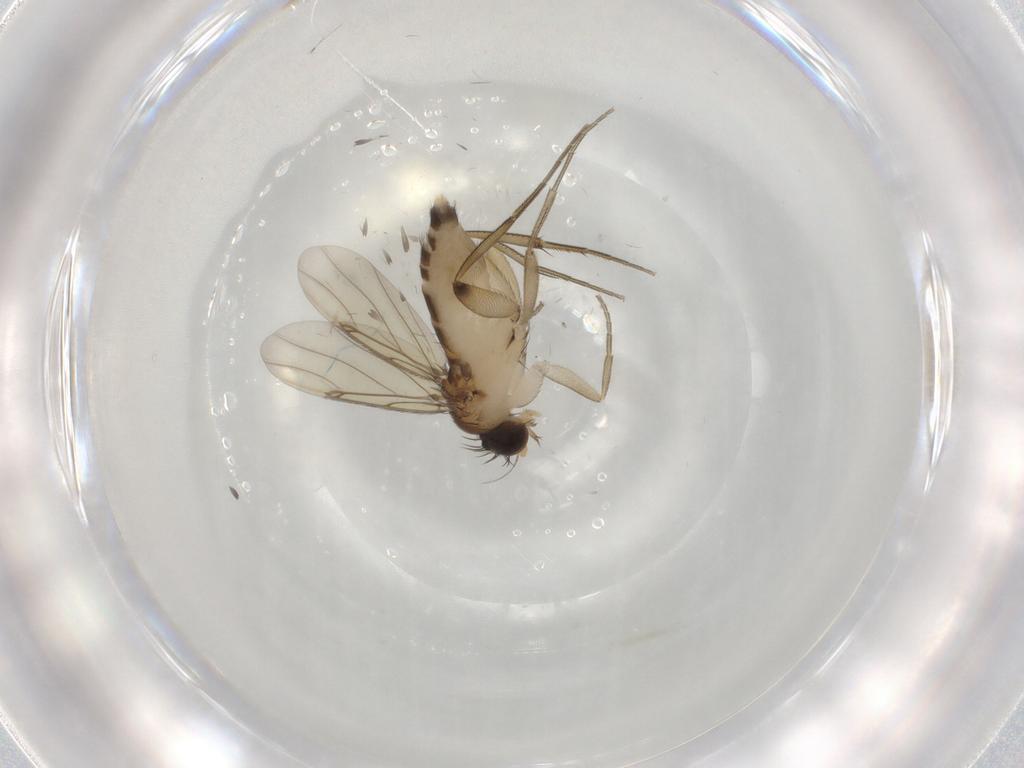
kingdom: Animalia
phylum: Arthropoda
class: Insecta
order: Diptera
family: Phoridae
